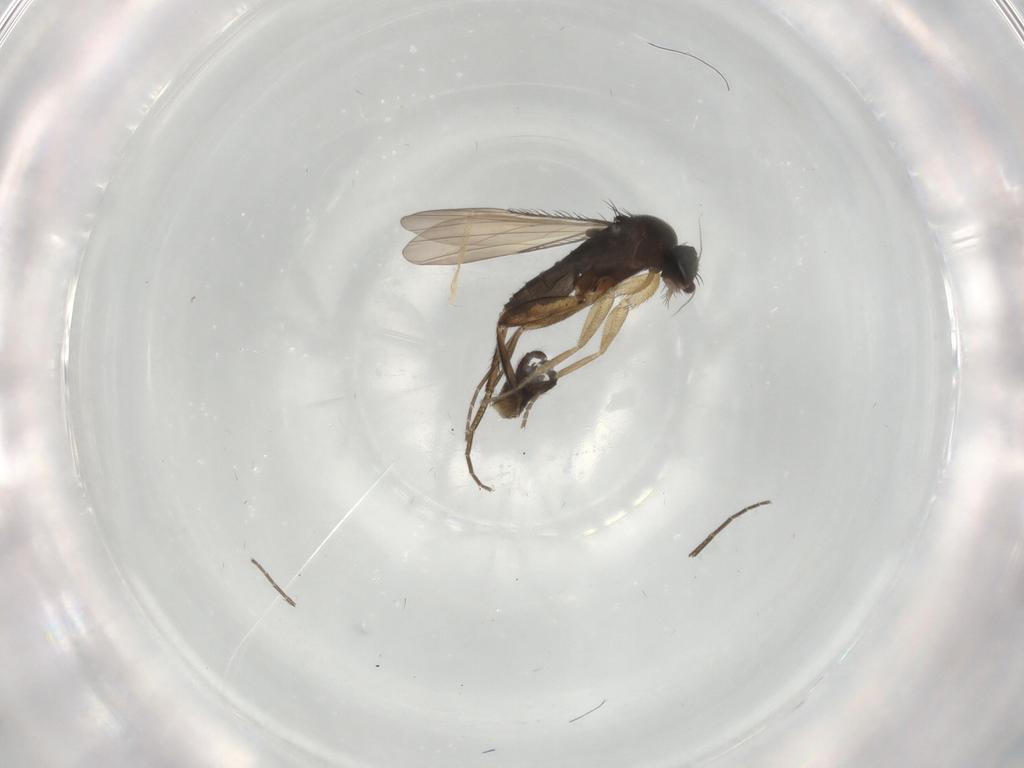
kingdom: Animalia
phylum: Arthropoda
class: Insecta
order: Diptera
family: Phoridae
